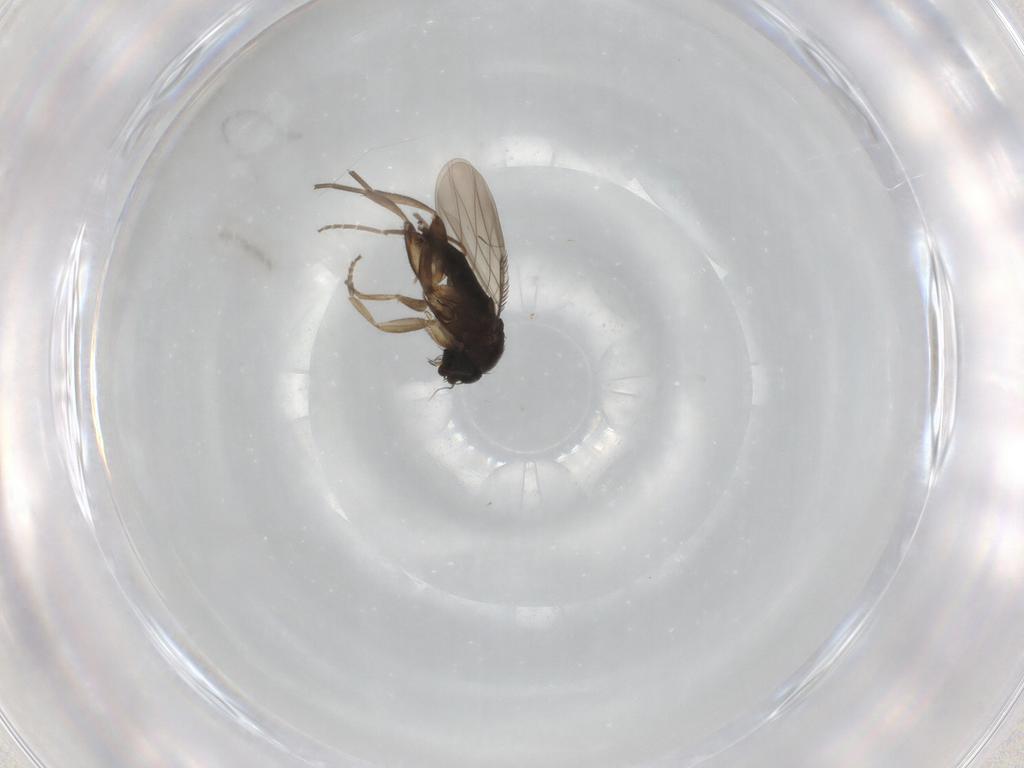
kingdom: Animalia
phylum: Arthropoda
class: Insecta
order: Diptera
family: Phoridae
